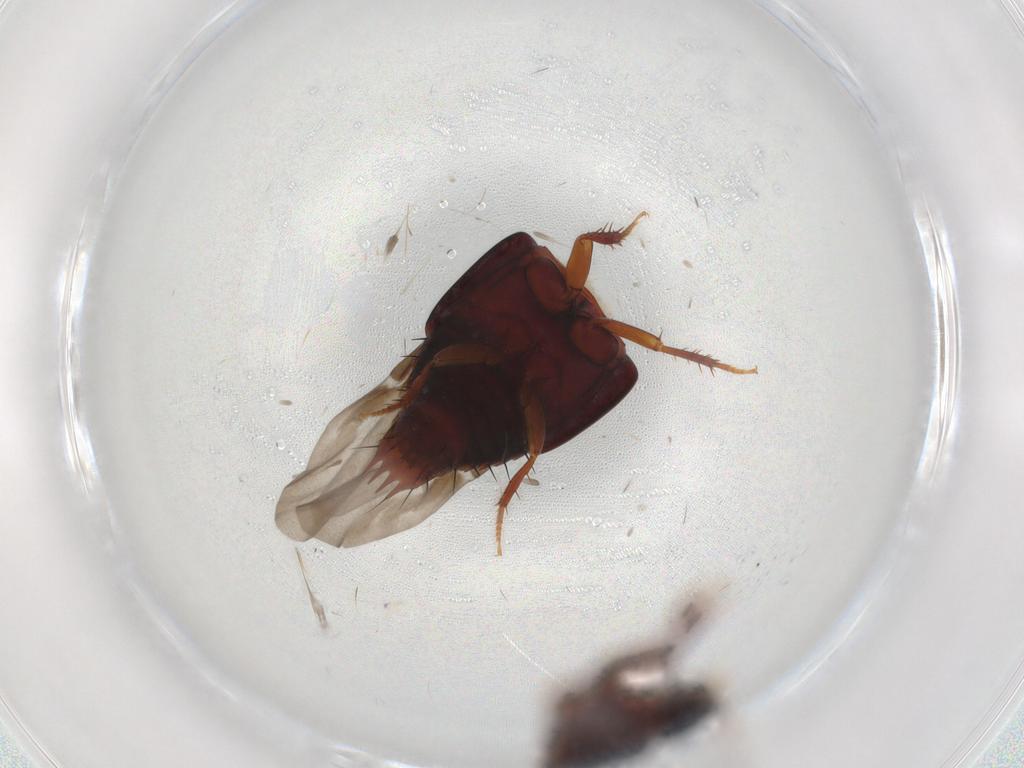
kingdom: Animalia
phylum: Arthropoda
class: Insecta
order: Coleoptera
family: Staphylinidae
